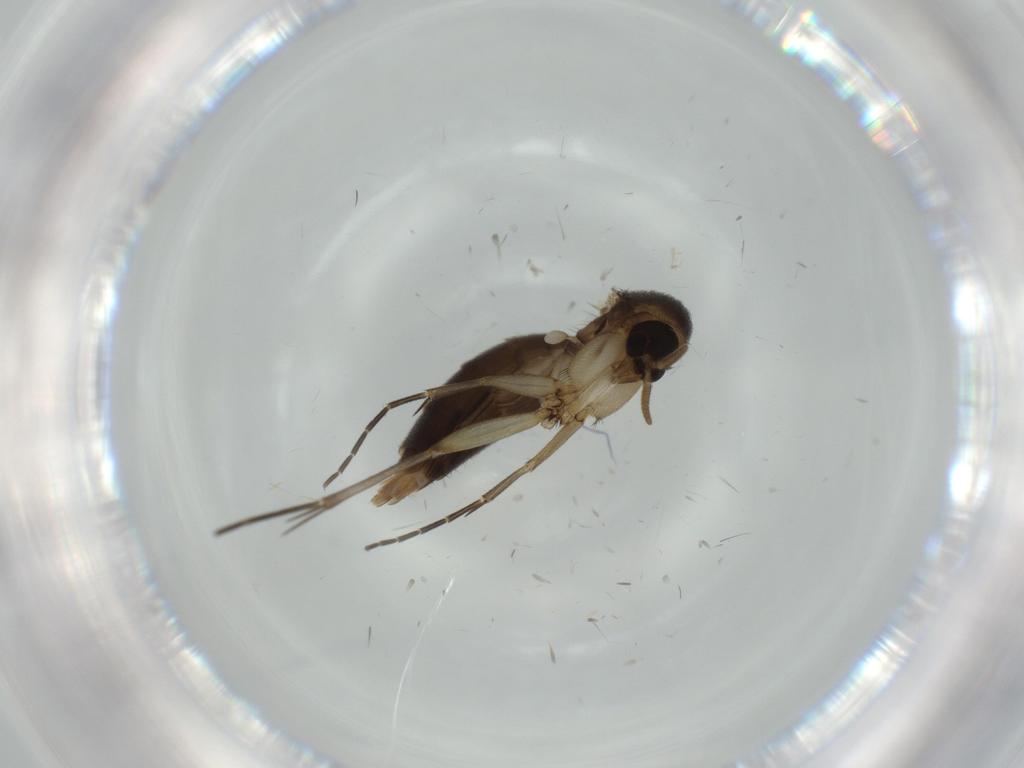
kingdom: Animalia
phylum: Arthropoda
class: Insecta
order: Diptera
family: Mycetophilidae
